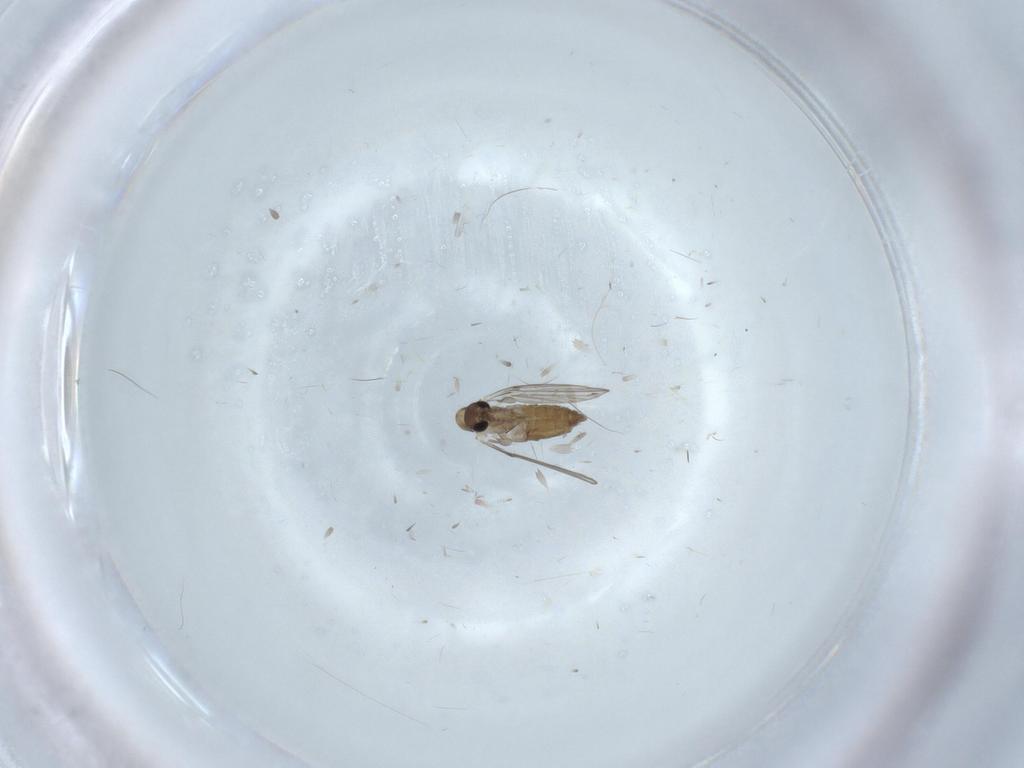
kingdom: Animalia
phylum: Arthropoda
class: Insecta
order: Diptera
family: Psychodidae
